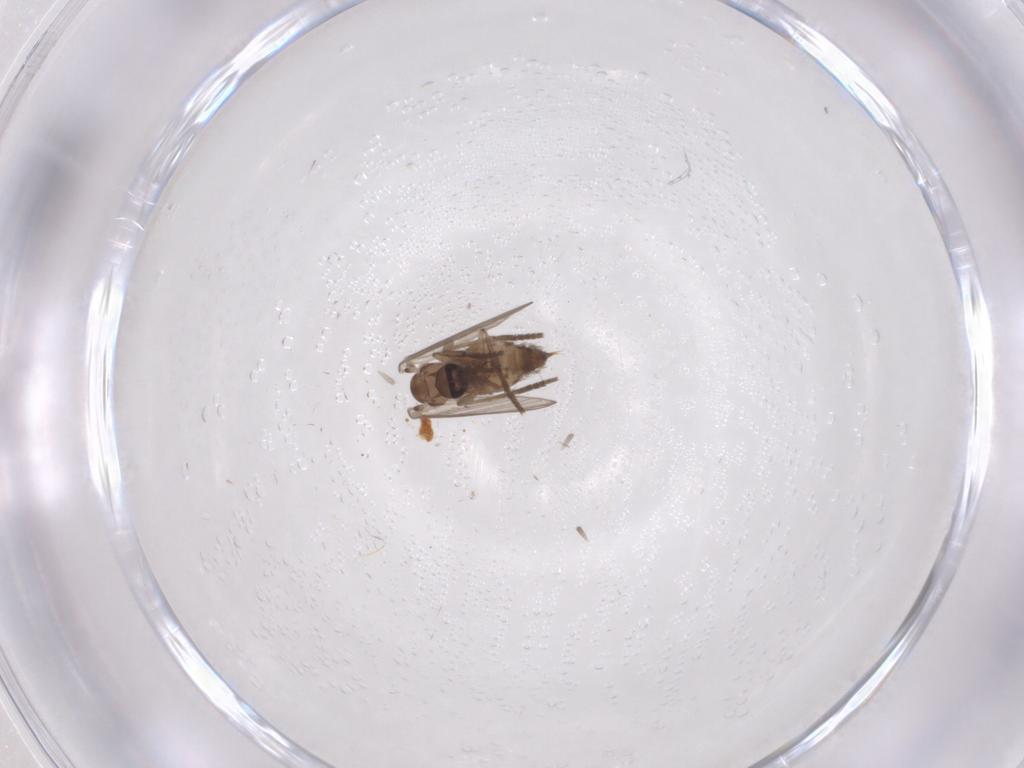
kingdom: Animalia
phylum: Arthropoda
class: Insecta
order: Diptera
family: Psychodidae
